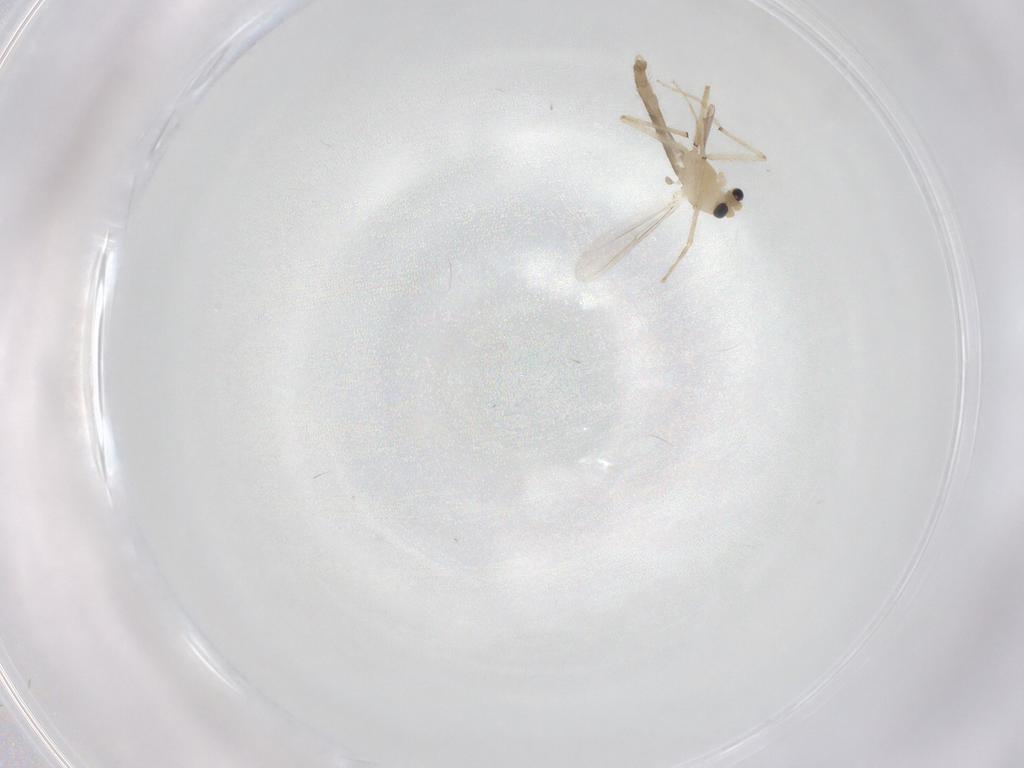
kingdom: Animalia
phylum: Arthropoda
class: Insecta
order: Diptera
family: Chironomidae
